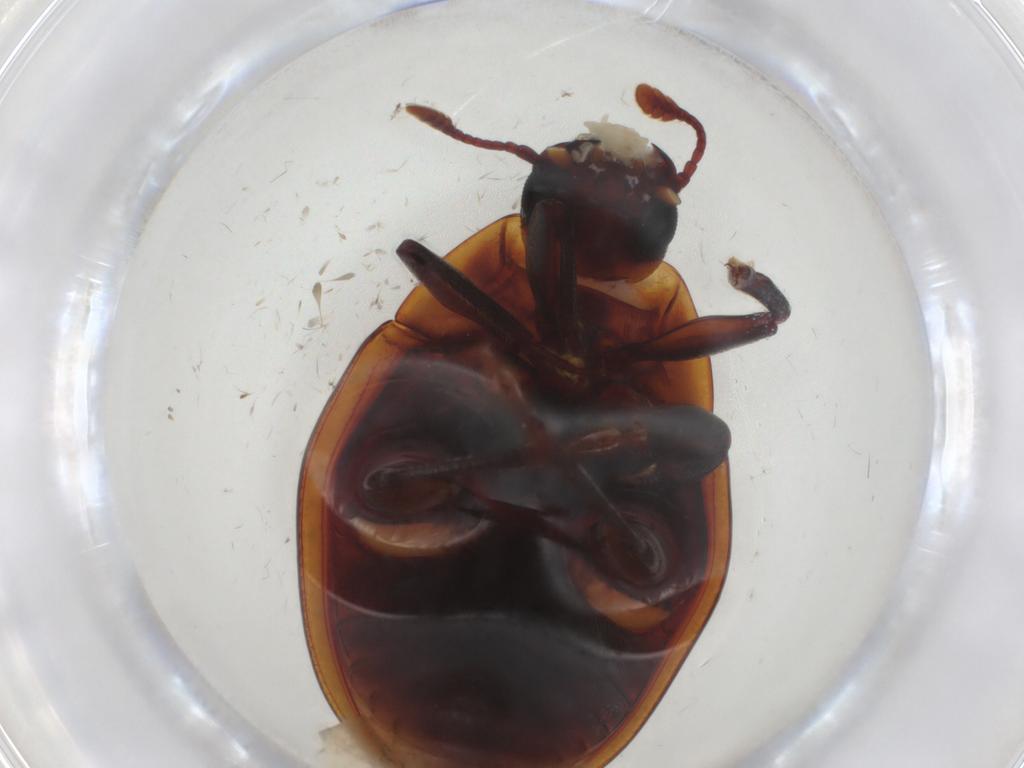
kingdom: Animalia
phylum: Arthropoda
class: Insecta
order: Coleoptera
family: Zopheridae
